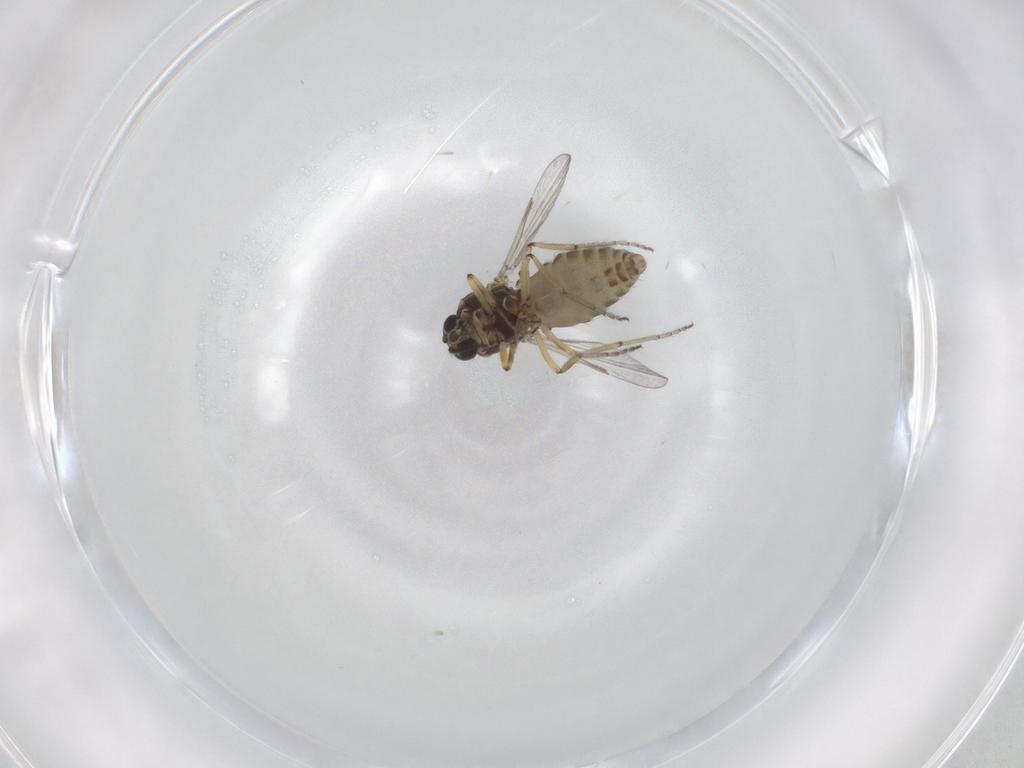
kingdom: Animalia
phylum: Arthropoda
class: Insecta
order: Diptera
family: Ceratopogonidae
